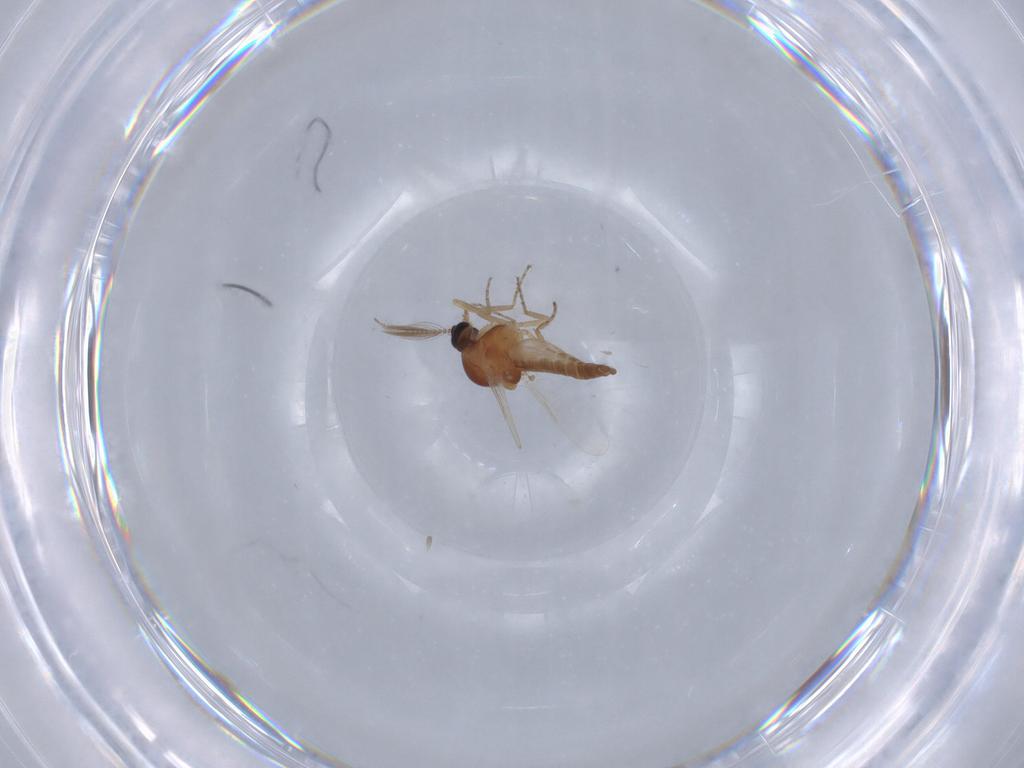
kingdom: Animalia
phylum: Arthropoda
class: Insecta
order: Diptera
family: Ceratopogonidae
